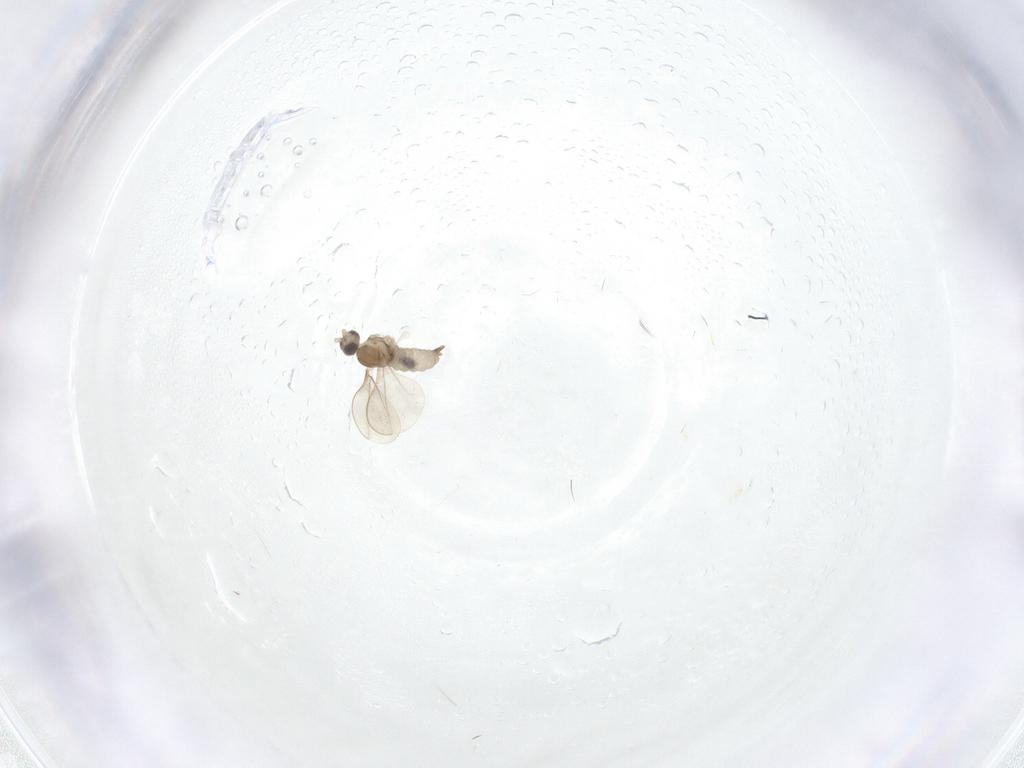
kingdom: Animalia
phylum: Arthropoda
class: Insecta
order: Diptera
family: Cecidomyiidae
